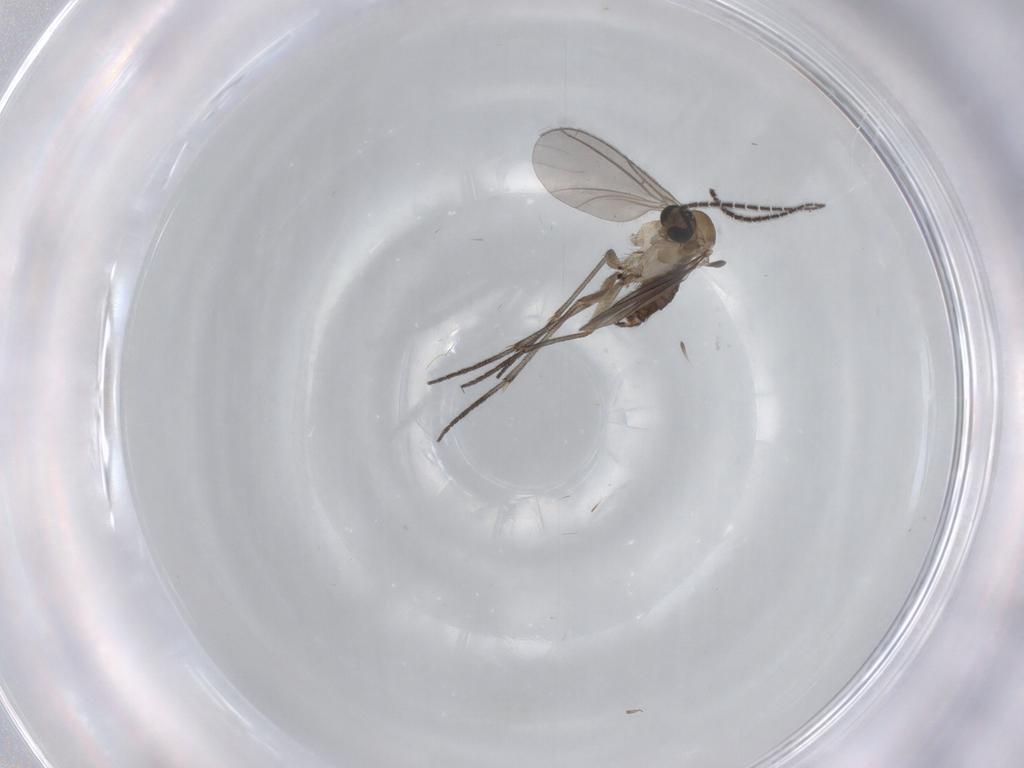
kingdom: Animalia
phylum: Arthropoda
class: Insecta
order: Diptera
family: Sciaridae
